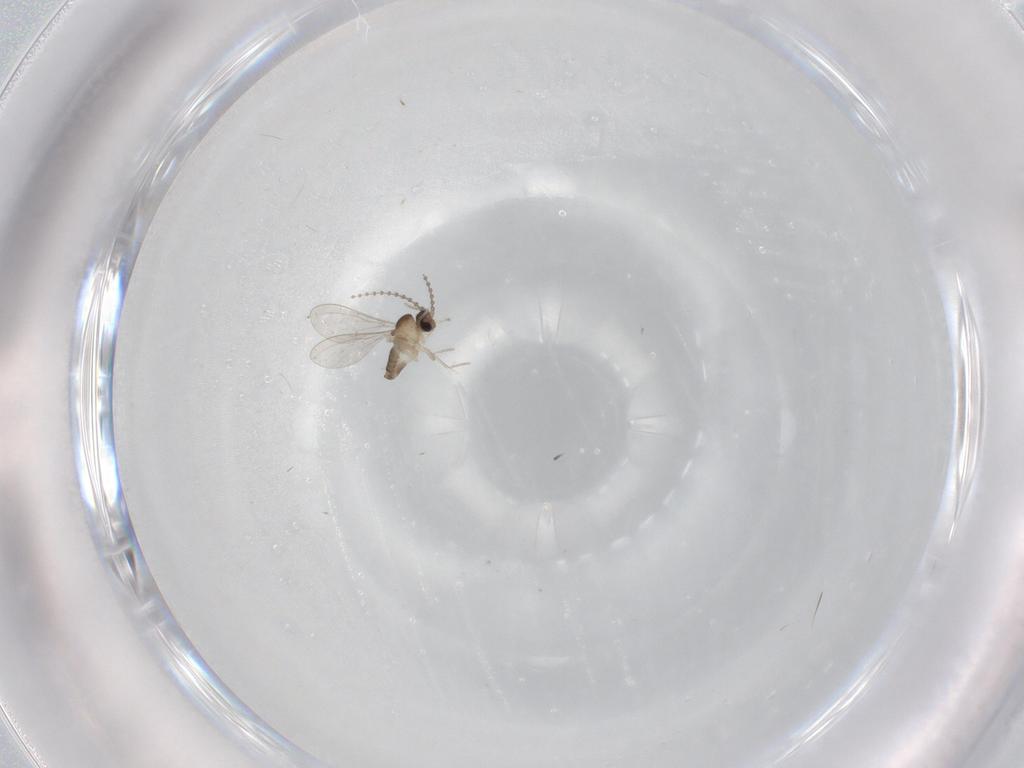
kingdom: Animalia
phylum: Arthropoda
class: Insecta
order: Diptera
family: Cecidomyiidae
